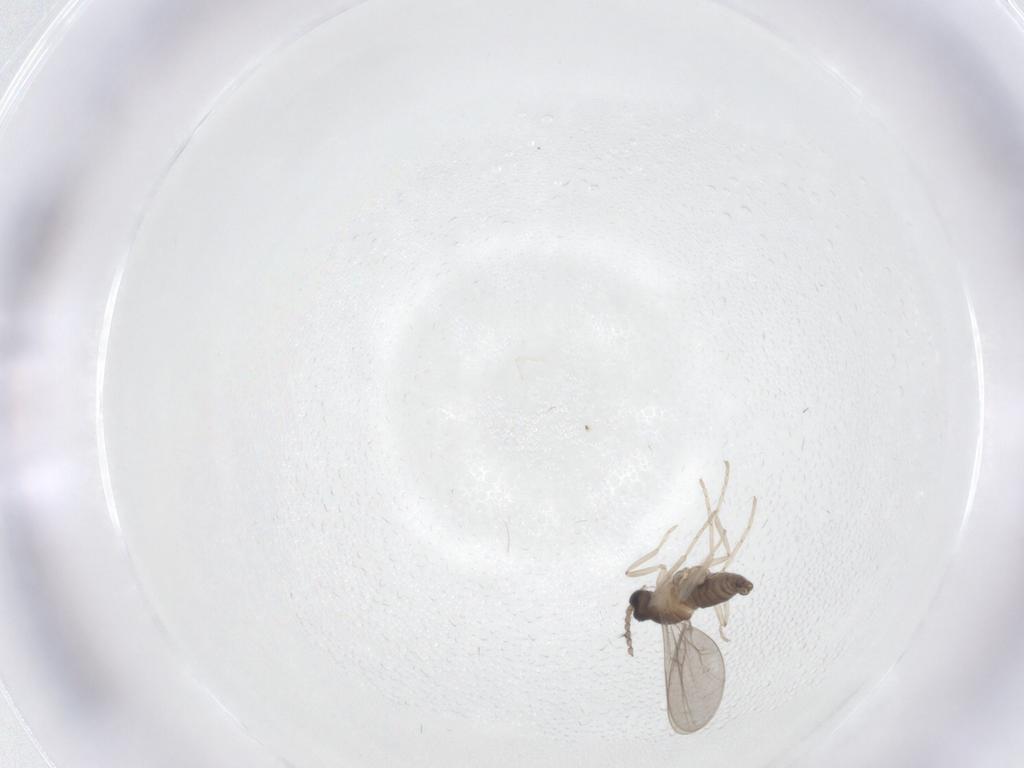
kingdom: Animalia
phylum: Arthropoda
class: Insecta
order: Diptera
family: Cecidomyiidae
